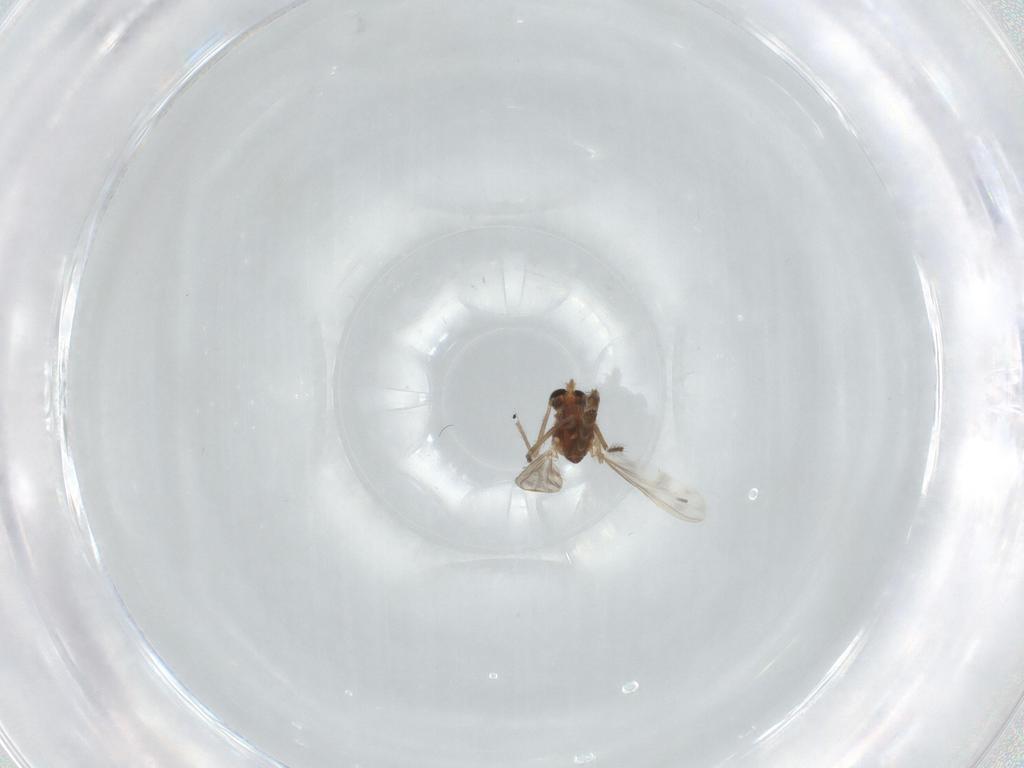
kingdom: Animalia
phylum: Arthropoda
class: Insecta
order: Diptera
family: Chironomidae
